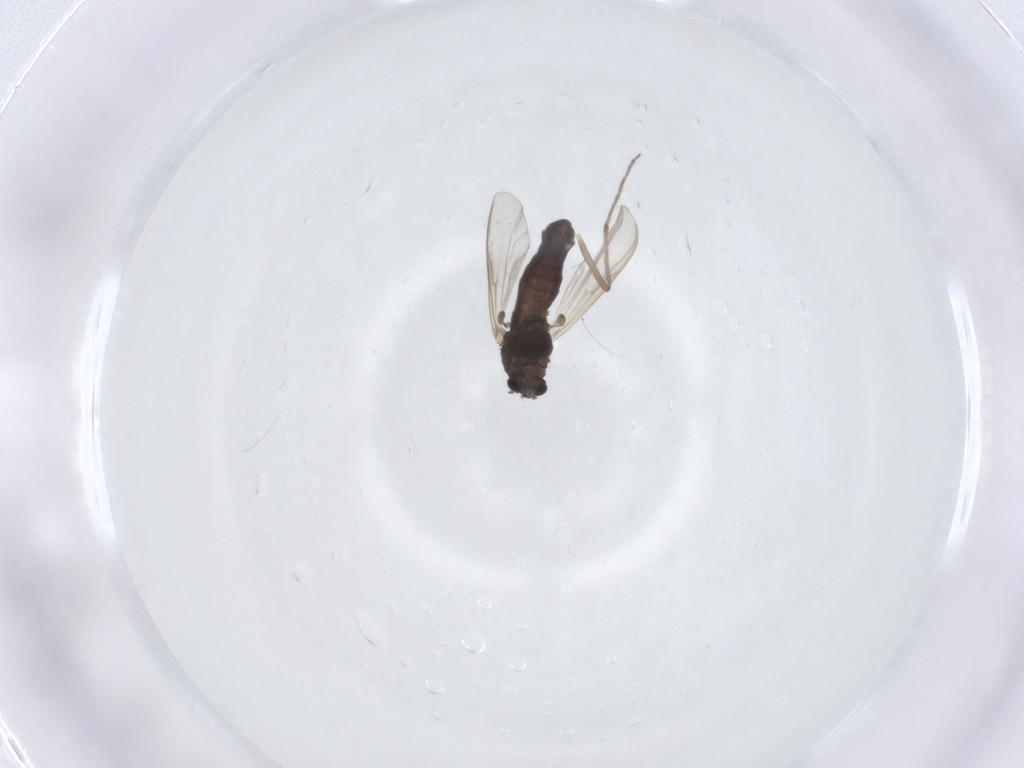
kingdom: Animalia
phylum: Arthropoda
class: Insecta
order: Diptera
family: Chironomidae
